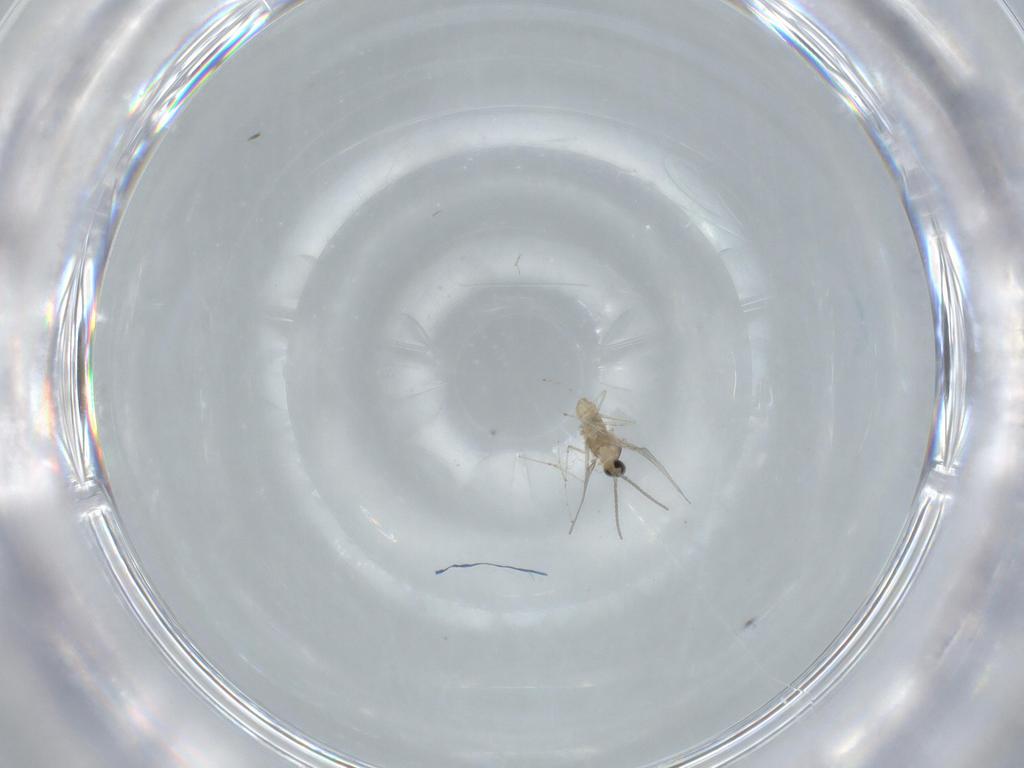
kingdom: Animalia
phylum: Arthropoda
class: Insecta
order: Diptera
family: Cecidomyiidae
